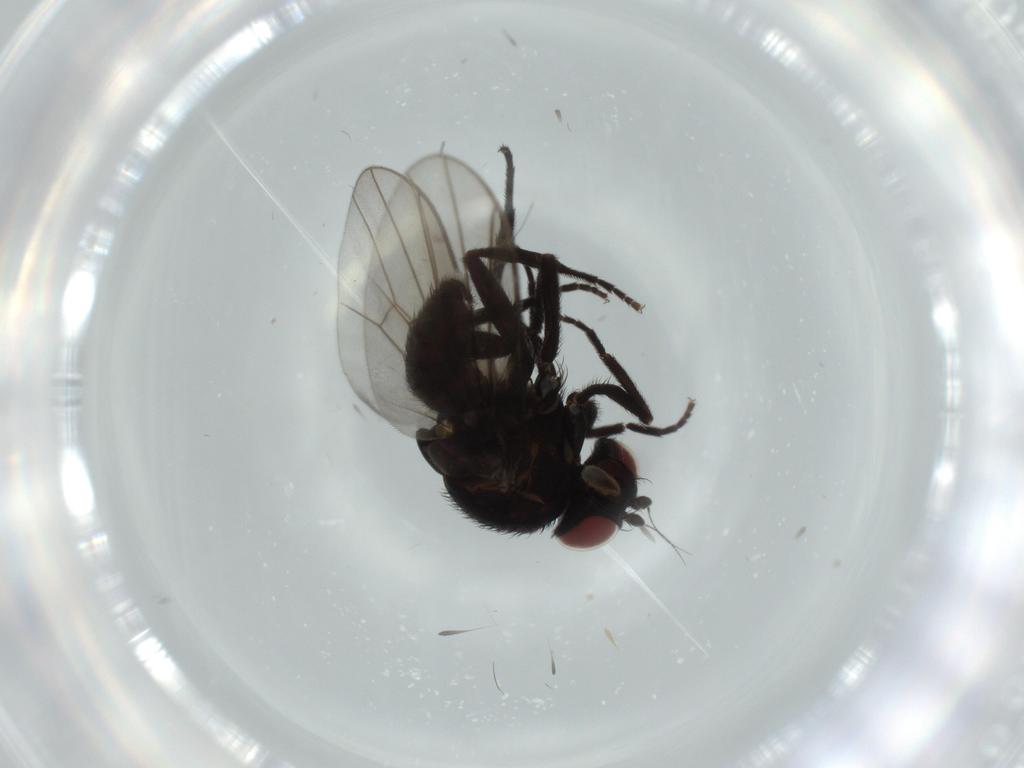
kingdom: Animalia
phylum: Arthropoda
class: Insecta
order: Diptera
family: Agromyzidae
